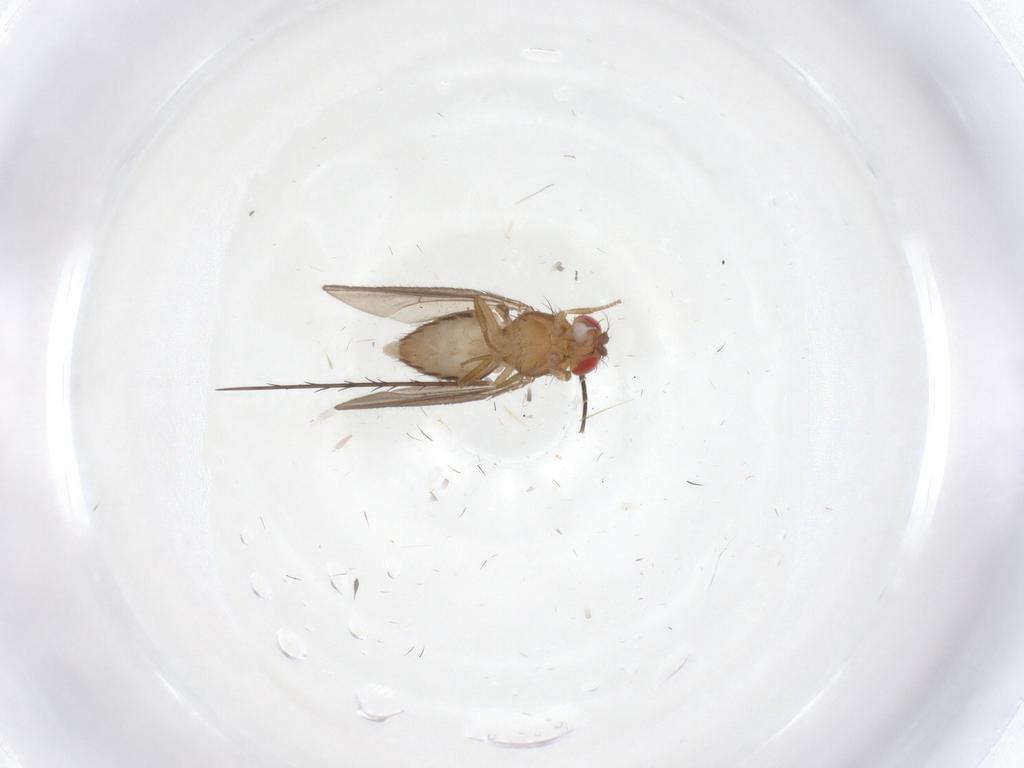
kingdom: Animalia
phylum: Arthropoda
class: Insecta
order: Diptera
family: Drosophilidae
